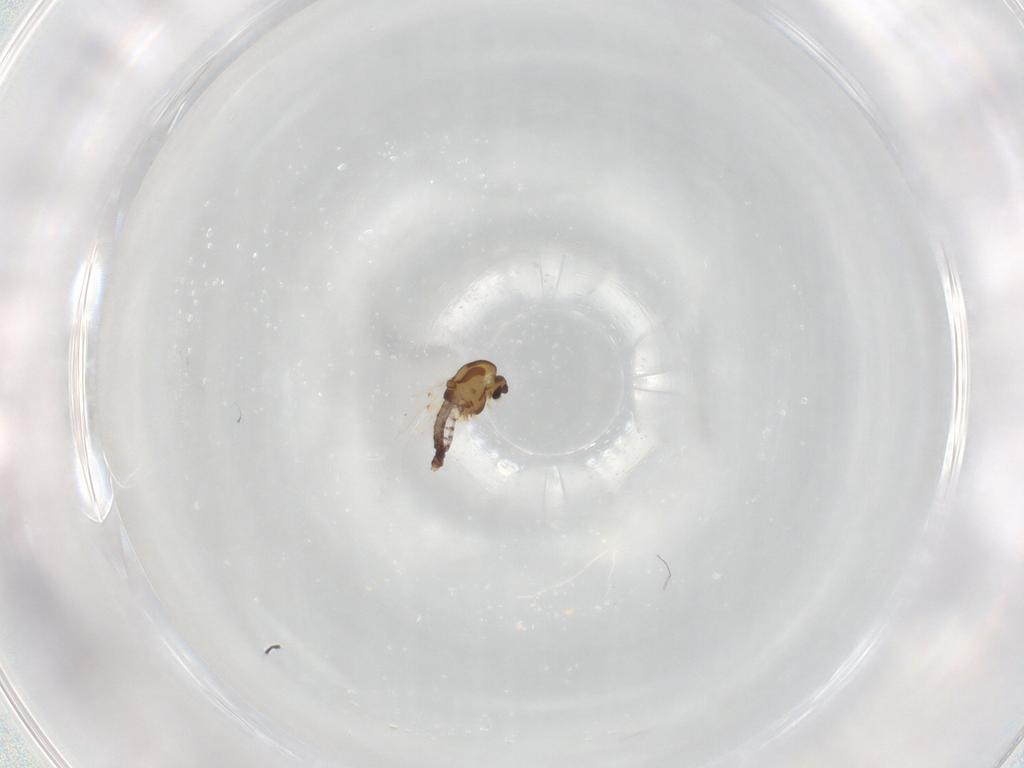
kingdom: Animalia
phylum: Arthropoda
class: Insecta
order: Diptera
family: Chironomidae
